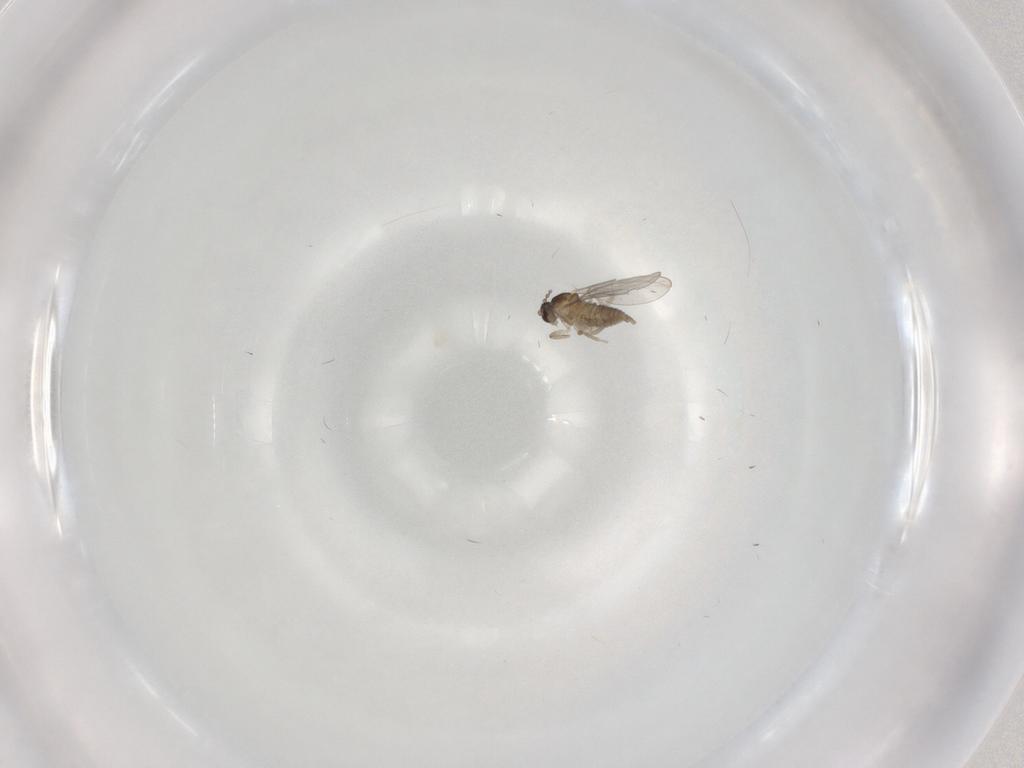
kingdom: Animalia
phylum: Arthropoda
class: Insecta
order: Diptera
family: Cecidomyiidae
